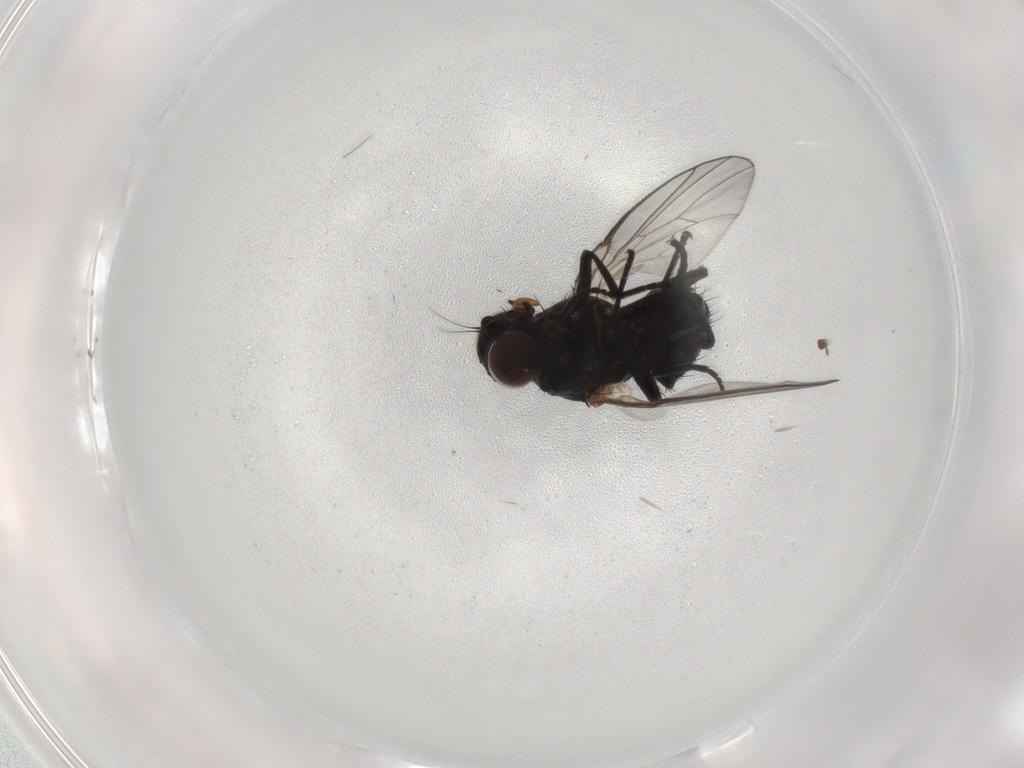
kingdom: Animalia
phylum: Arthropoda
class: Insecta
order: Diptera
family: Agromyzidae
